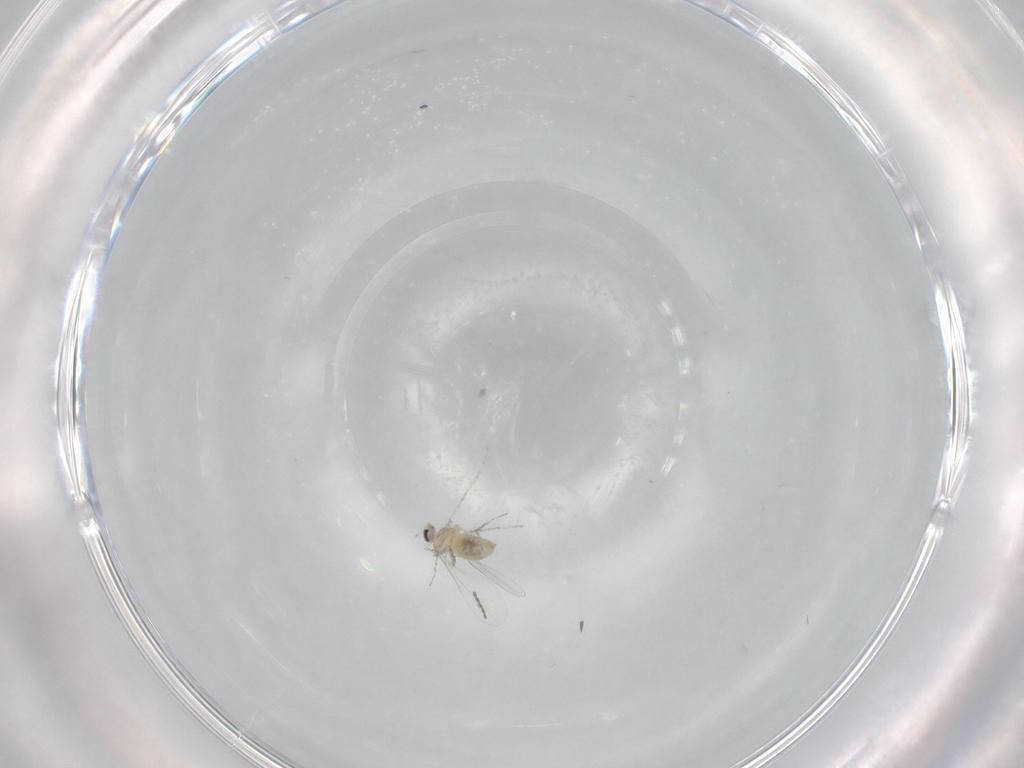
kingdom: Animalia
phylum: Arthropoda
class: Insecta
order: Diptera
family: Cecidomyiidae
